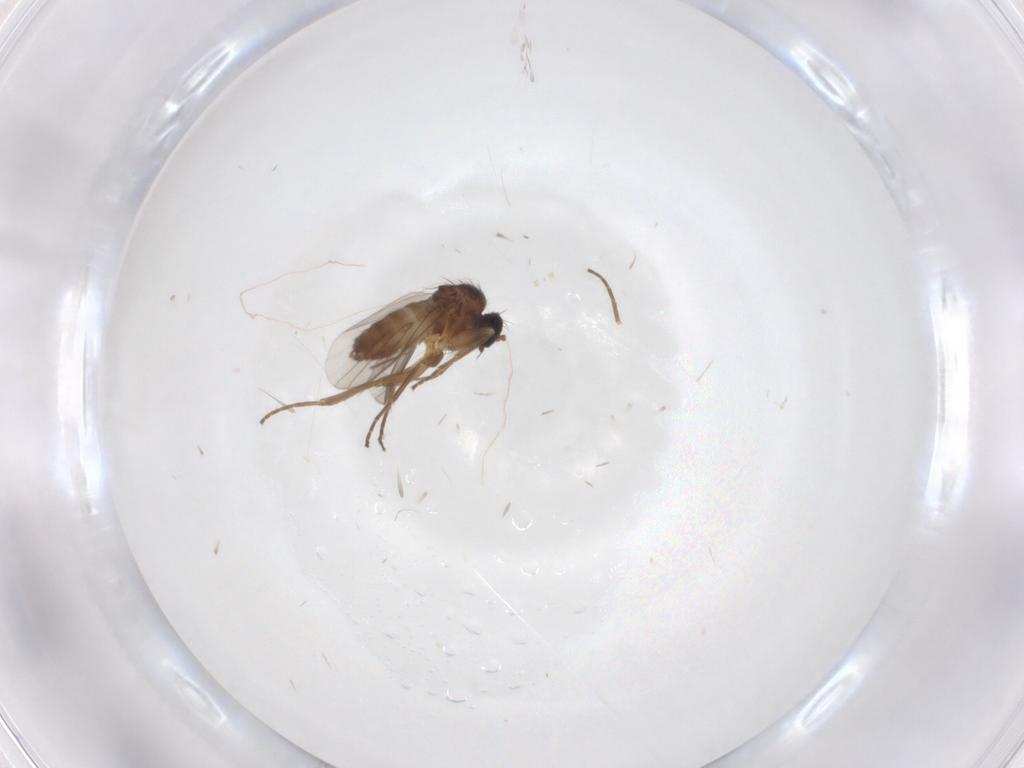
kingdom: Animalia
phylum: Arthropoda
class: Insecta
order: Diptera
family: Hybotidae
